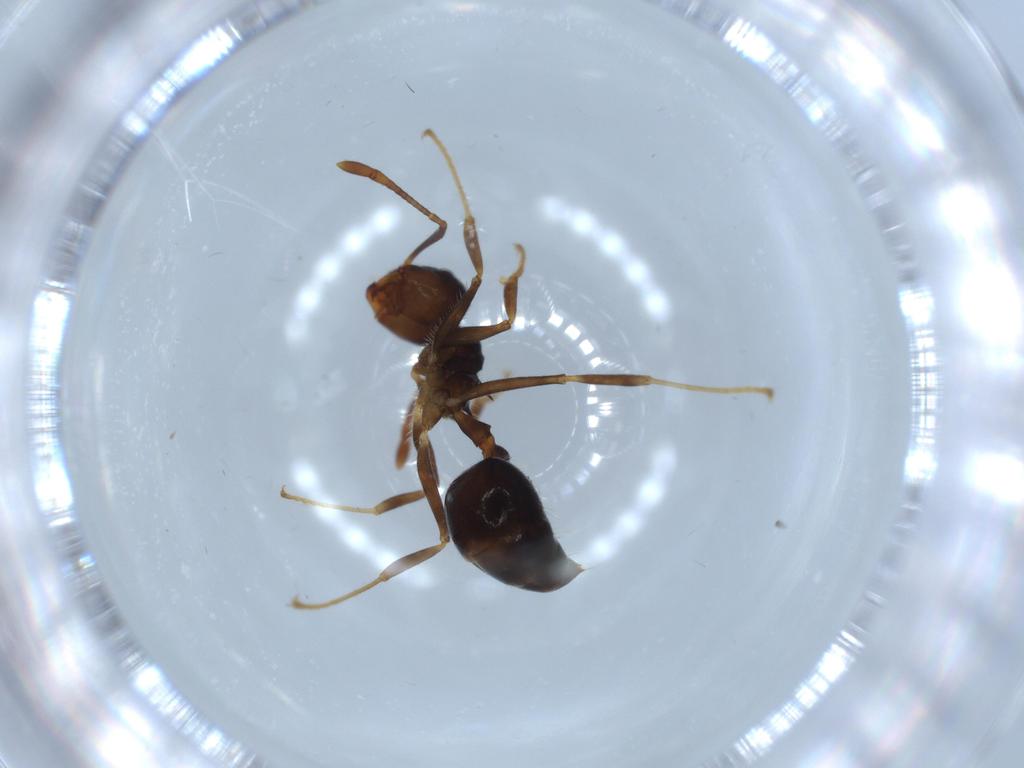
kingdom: Animalia
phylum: Arthropoda
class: Insecta
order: Hymenoptera
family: Formicidae
